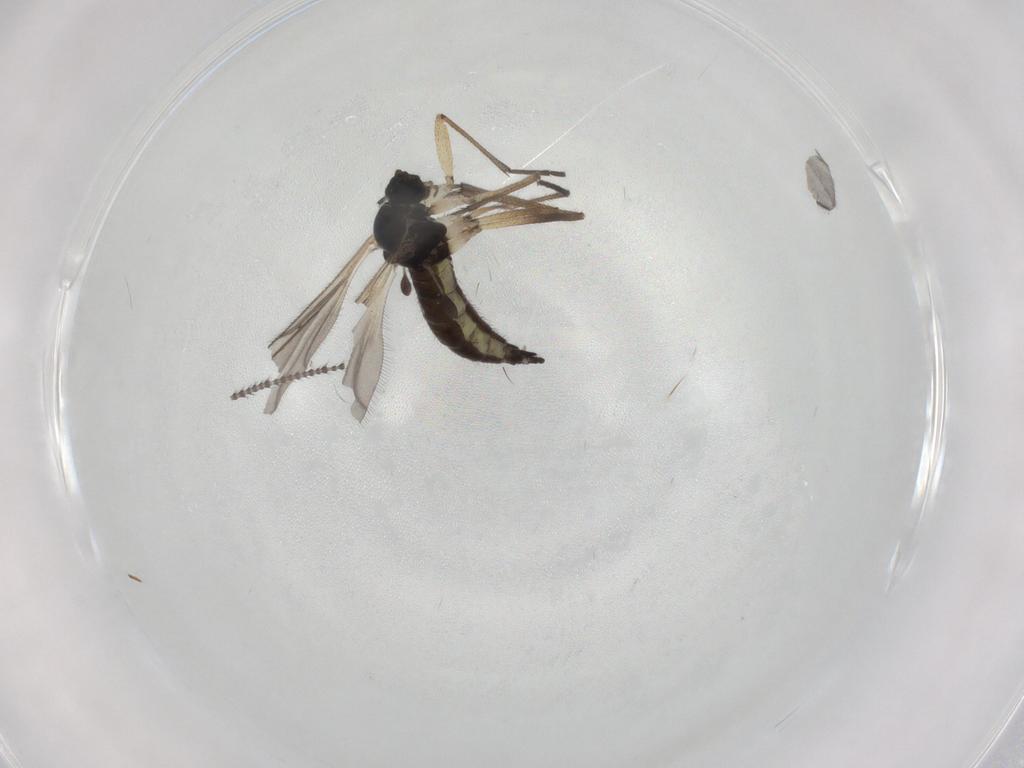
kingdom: Animalia
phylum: Arthropoda
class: Insecta
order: Diptera
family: Sciaridae
